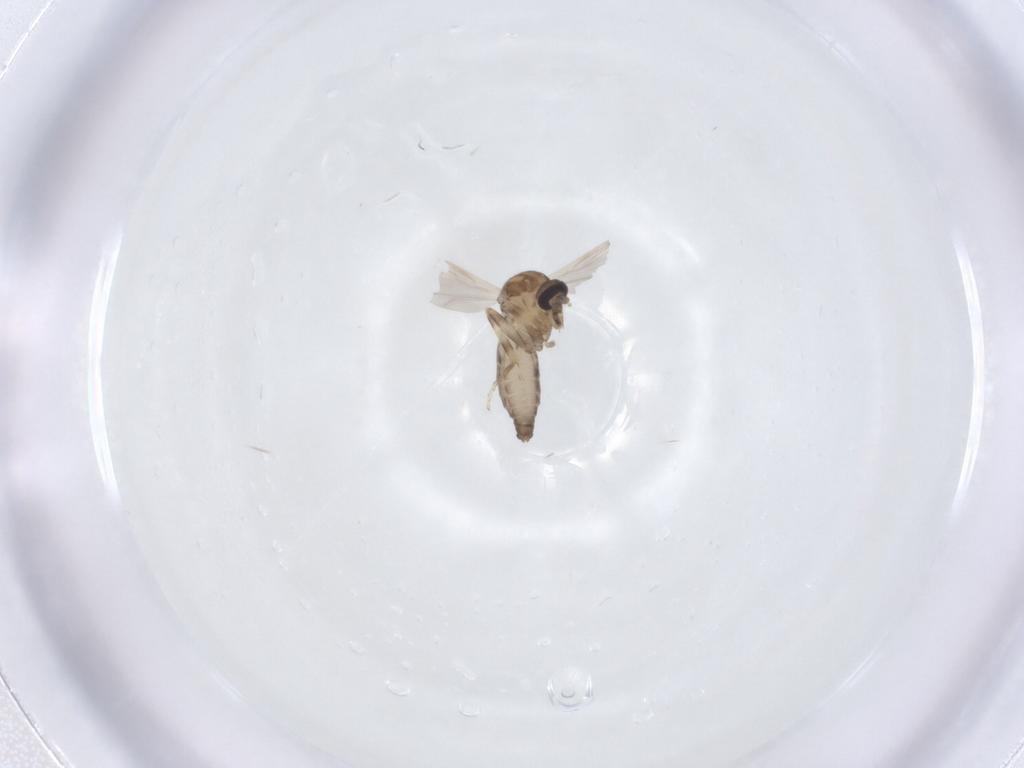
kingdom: Animalia
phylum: Arthropoda
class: Insecta
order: Diptera
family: Ceratopogonidae
